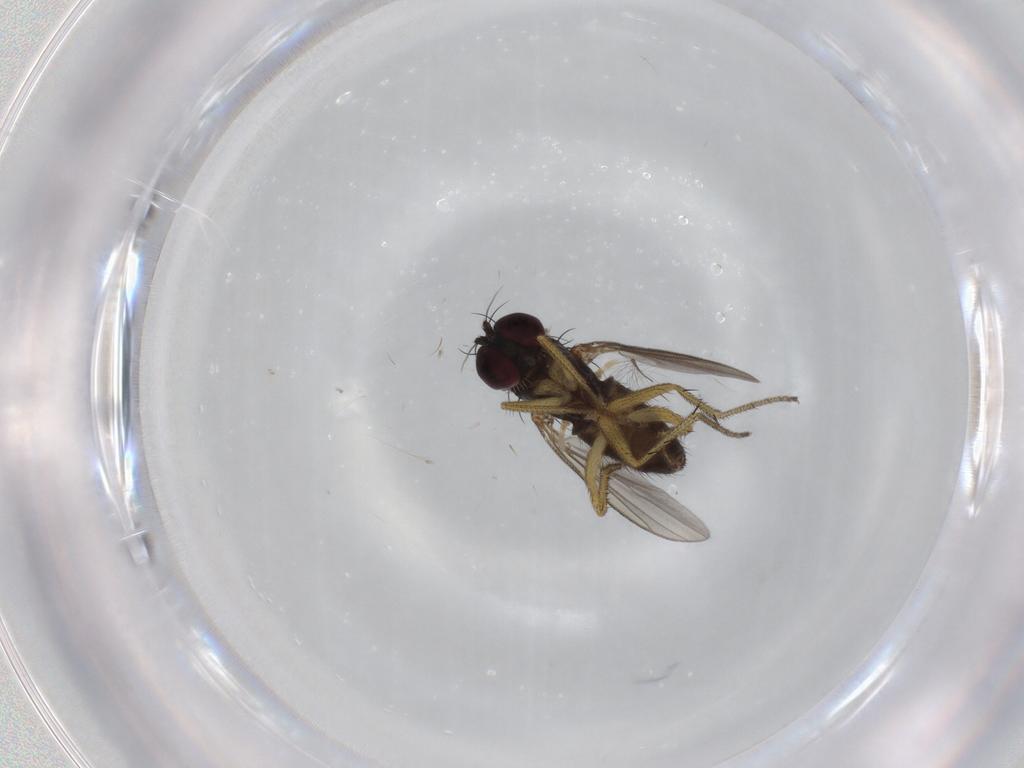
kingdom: Animalia
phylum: Arthropoda
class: Insecta
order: Diptera
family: Dolichopodidae
